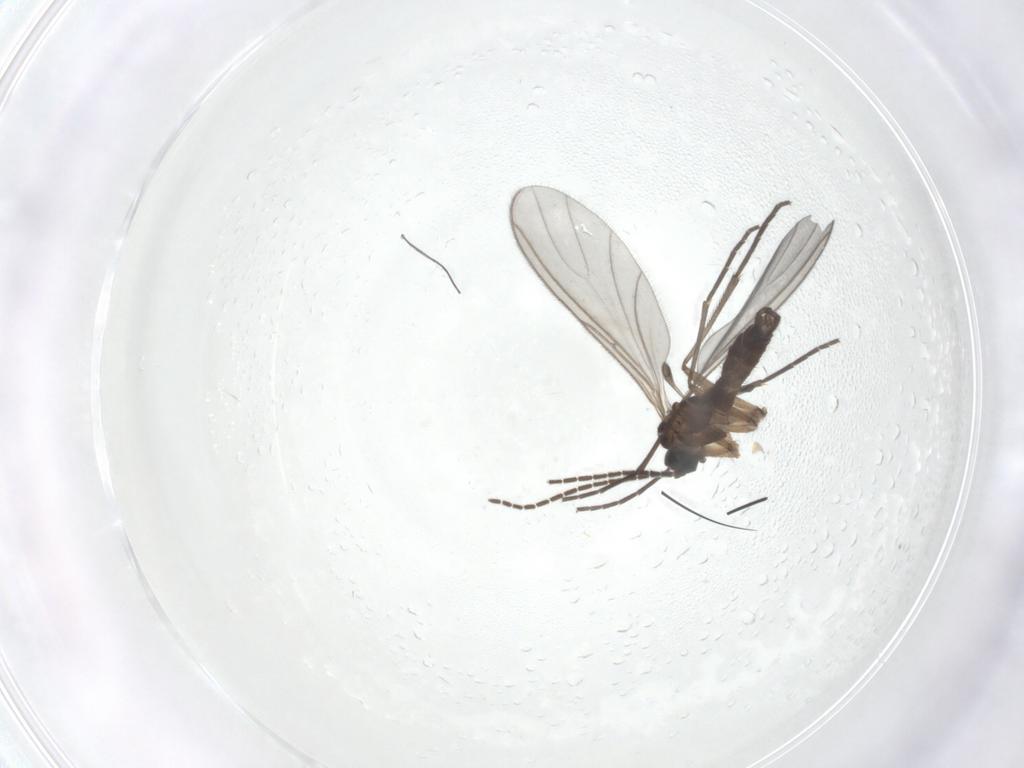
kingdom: Animalia
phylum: Arthropoda
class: Insecta
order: Diptera
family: Sciaridae
